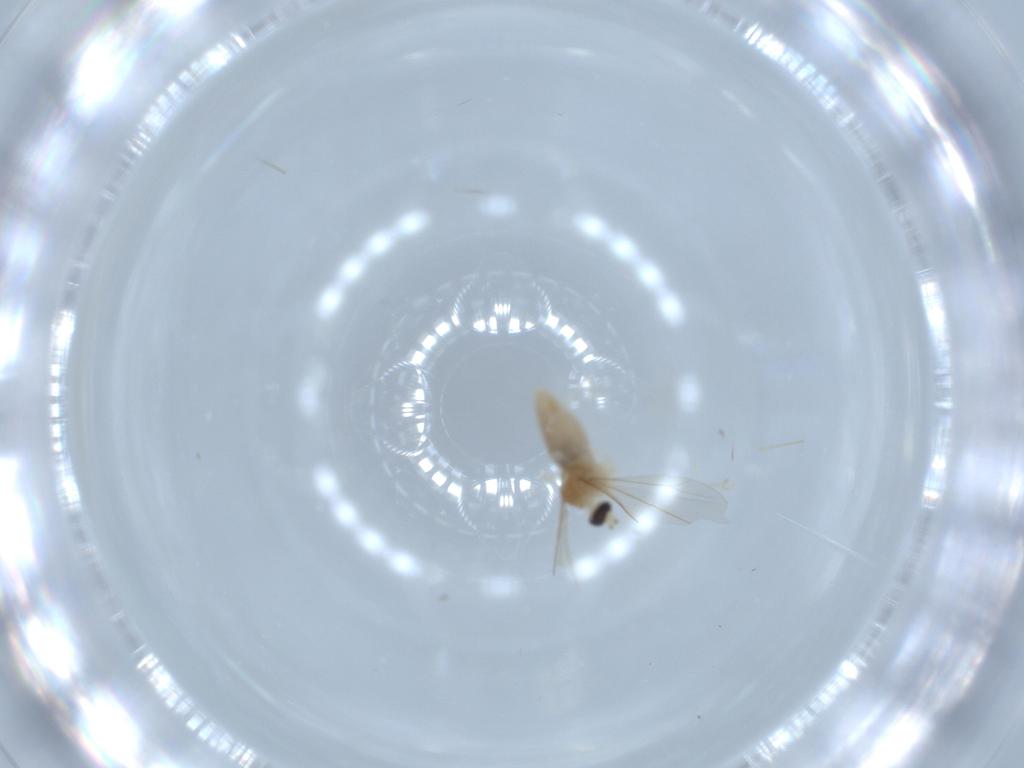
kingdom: Animalia
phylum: Arthropoda
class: Insecta
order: Diptera
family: Cecidomyiidae
